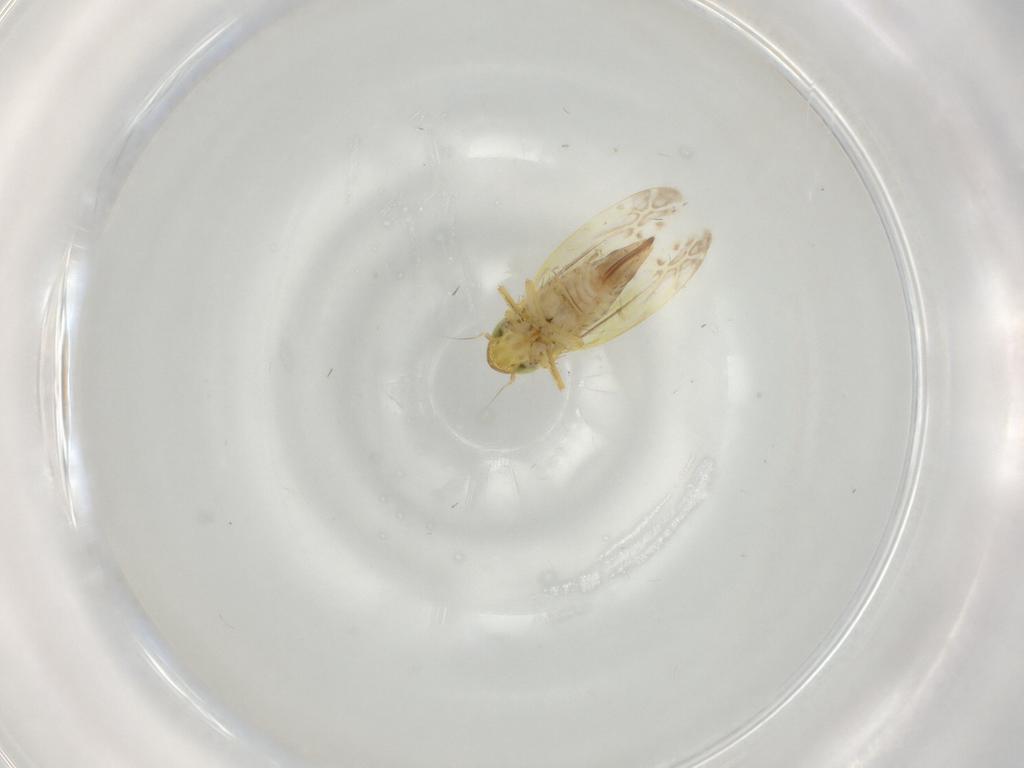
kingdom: Animalia
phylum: Arthropoda
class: Insecta
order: Hemiptera
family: Cicadellidae
